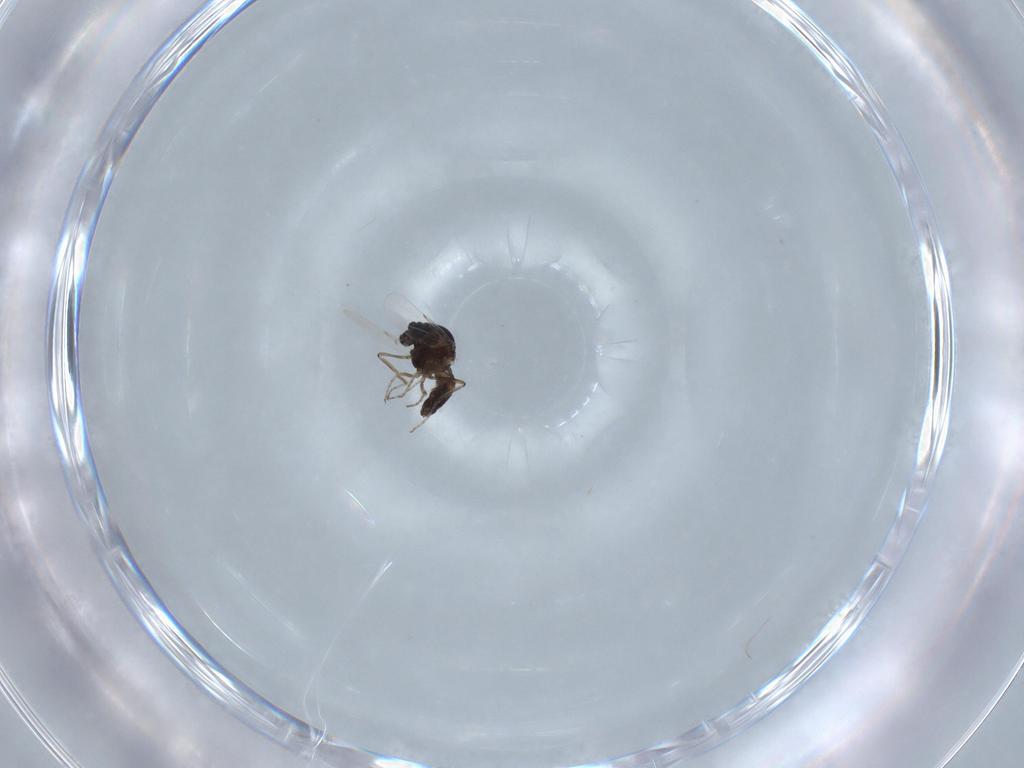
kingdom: Animalia
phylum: Arthropoda
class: Insecta
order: Diptera
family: Ceratopogonidae
